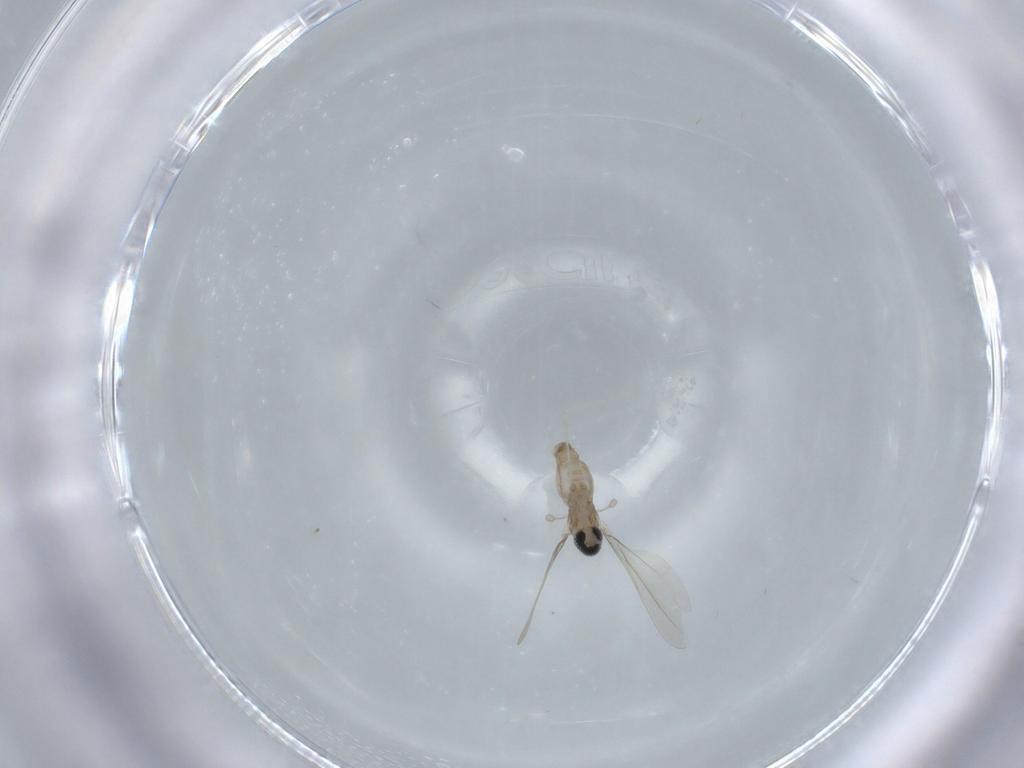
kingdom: Animalia
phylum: Arthropoda
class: Insecta
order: Diptera
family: Cecidomyiidae
